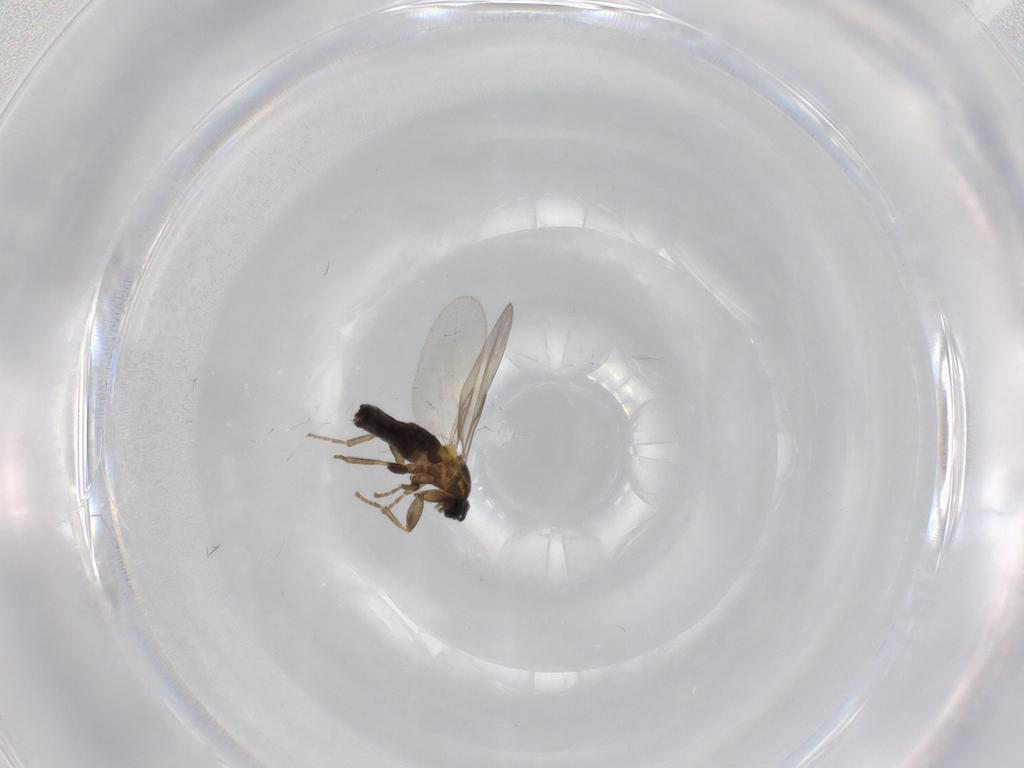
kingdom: Animalia
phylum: Arthropoda
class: Insecta
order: Diptera
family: Scatopsidae
